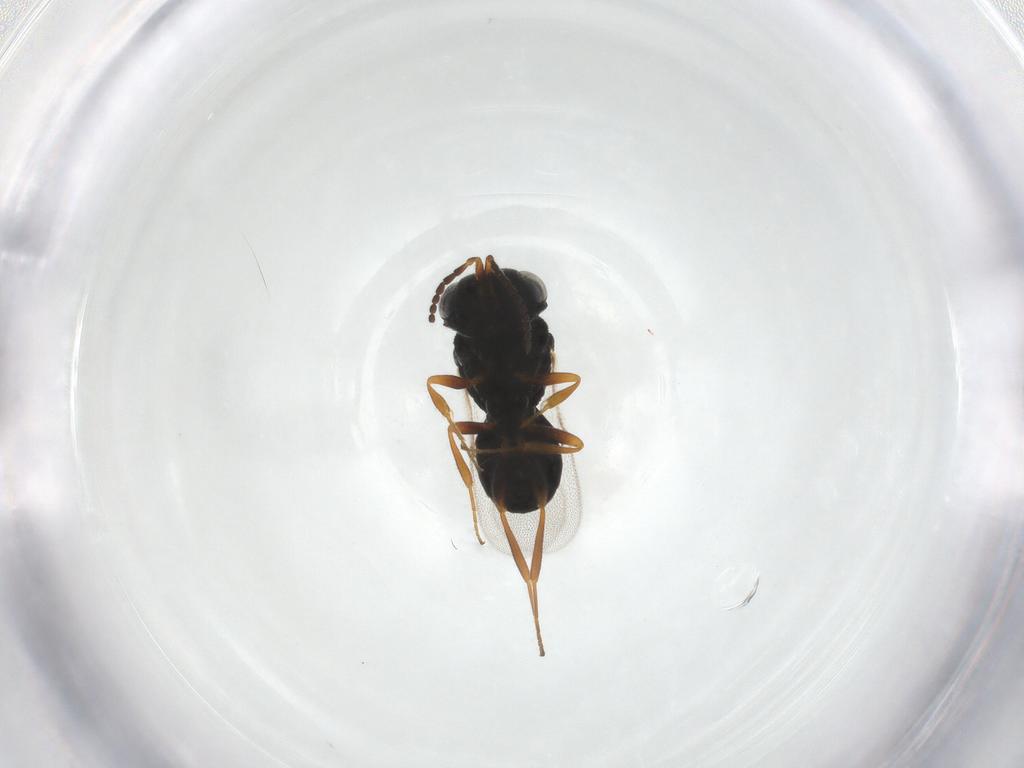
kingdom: Animalia
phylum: Arthropoda
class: Insecta
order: Hymenoptera
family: Scelionidae
